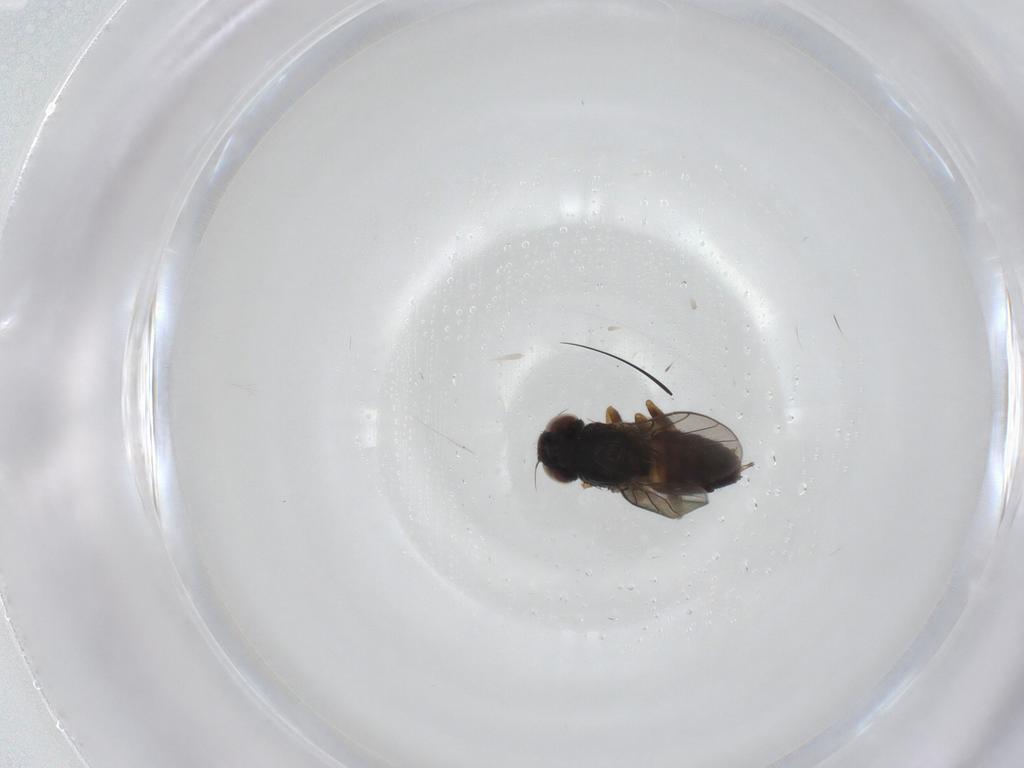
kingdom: Animalia
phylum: Arthropoda
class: Insecta
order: Diptera
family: Chloropidae
